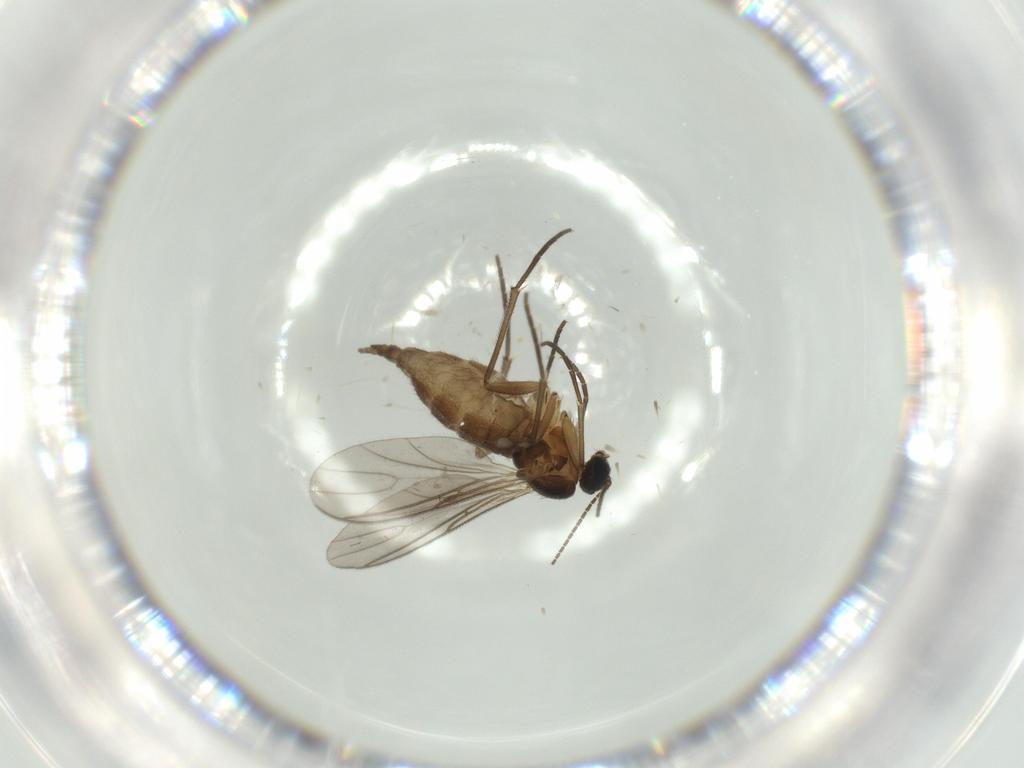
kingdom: Animalia
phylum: Arthropoda
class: Insecta
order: Diptera
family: Sciaridae
